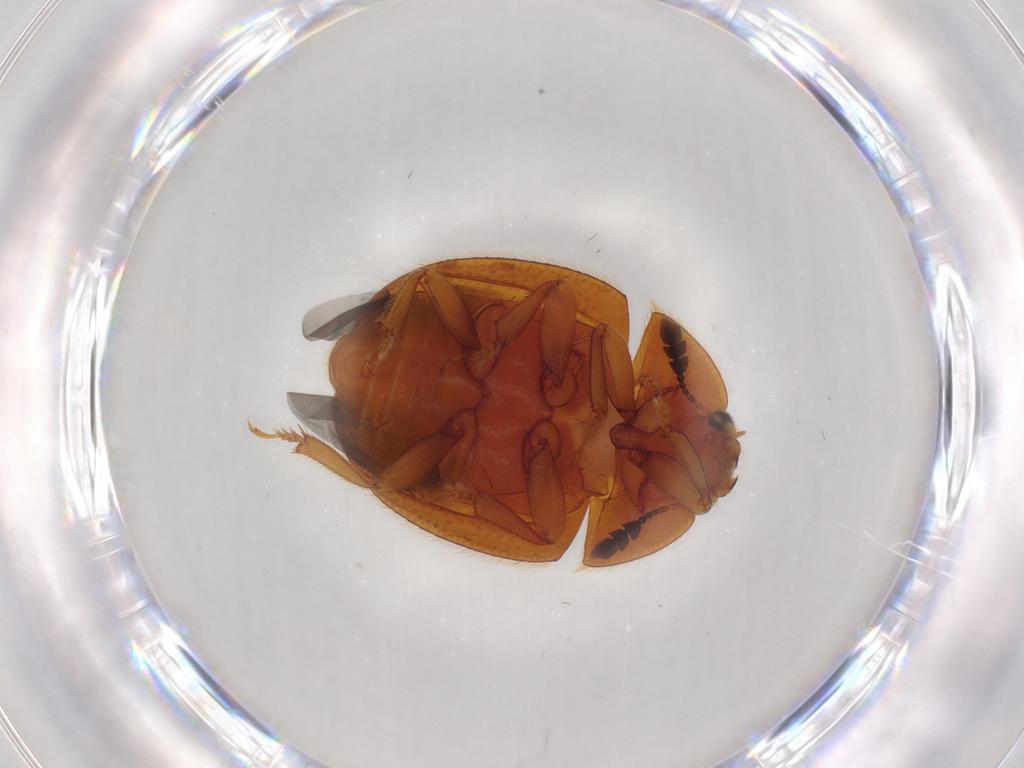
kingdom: Animalia
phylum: Arthropoda
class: Insecta
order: Coleoptera
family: Nitidulidae
